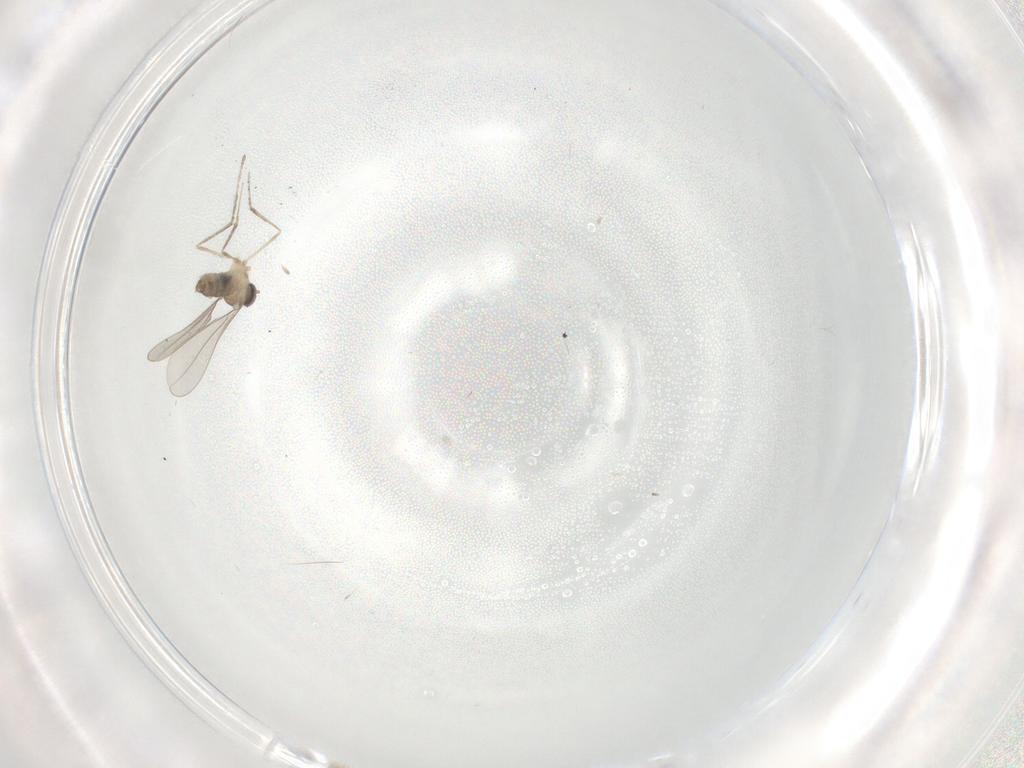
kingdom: Animalia
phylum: Arthropoda
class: Insecta
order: Diptera
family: Cecidomyiidae
